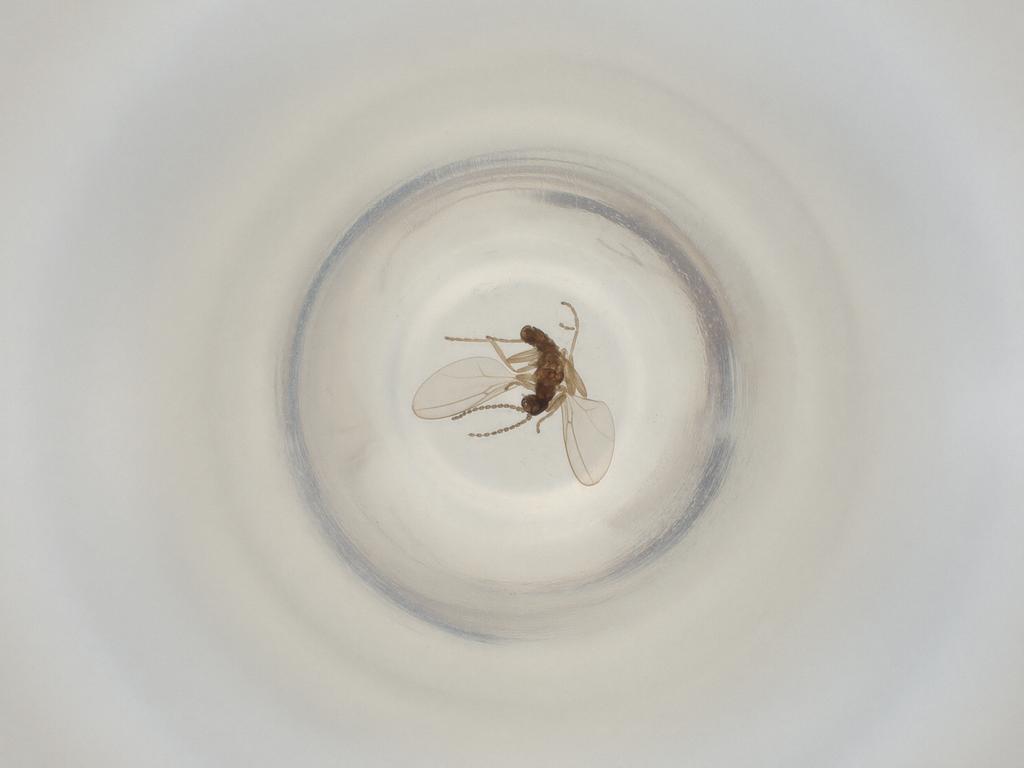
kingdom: Animalia
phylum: Arthropoda
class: Insecta
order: Diptera
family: Cecidomyiidae
